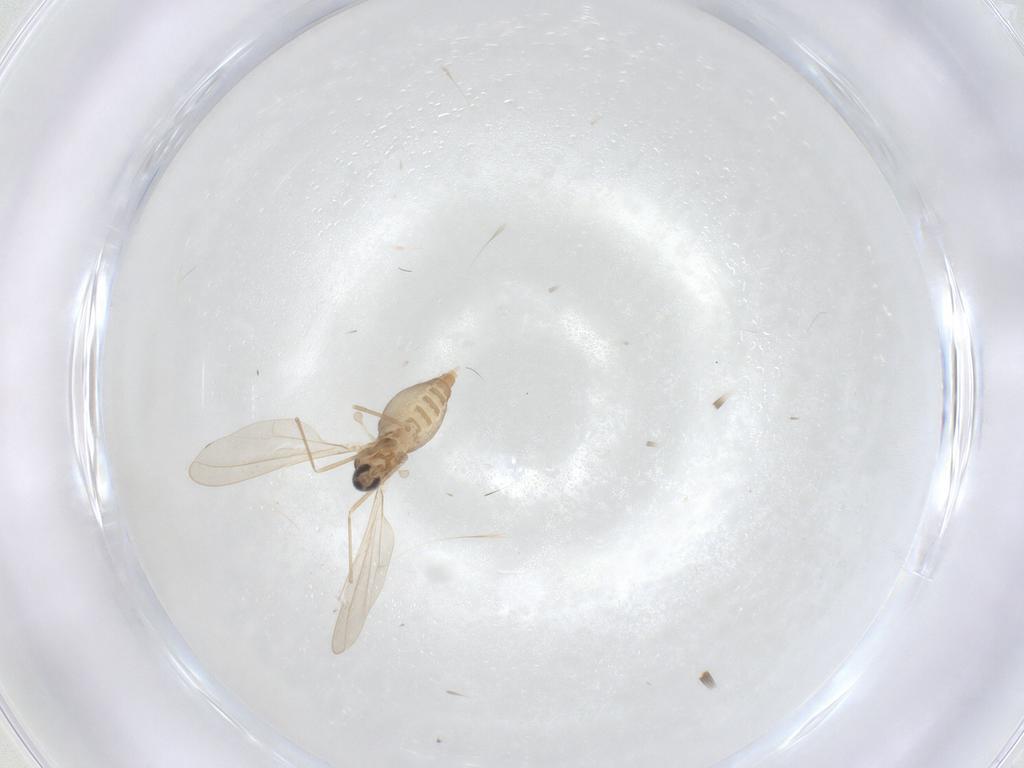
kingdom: Animalia
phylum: Arthropoda
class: Insecta
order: Diptera
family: Cecidomyiidae
